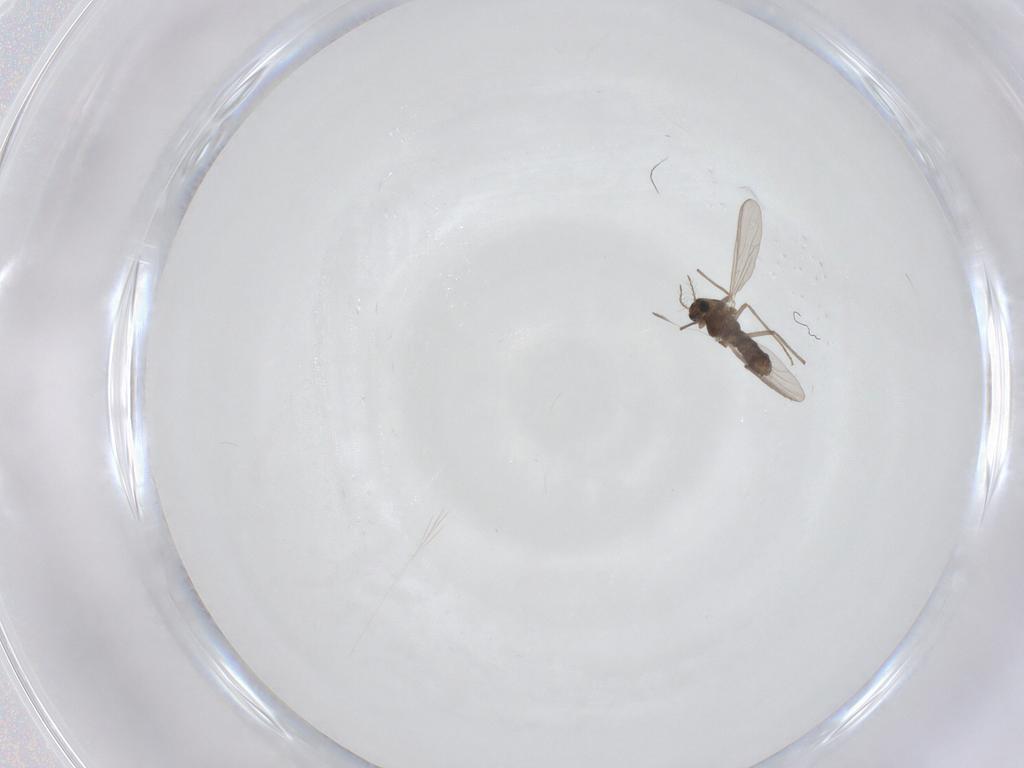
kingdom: Animalia
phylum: Arthropoda
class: Insecta
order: Diptera
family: Chironomidae
